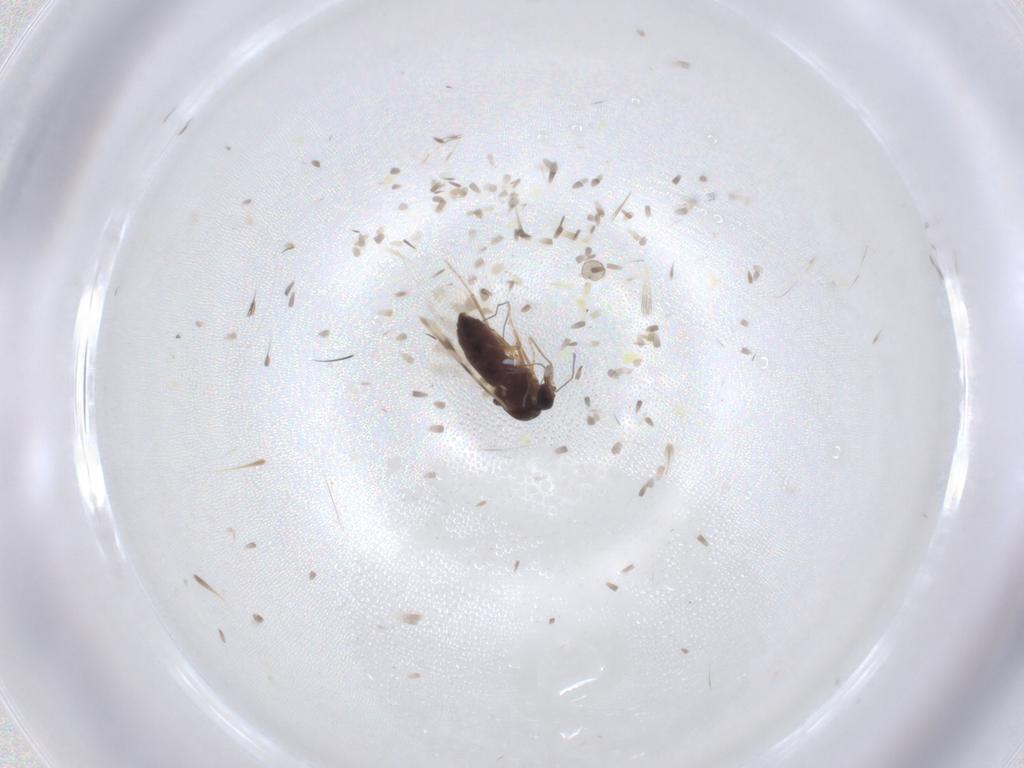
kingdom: Animalia
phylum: Arthropoda
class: Insecta
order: Diptera
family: Ceratopogonidae
